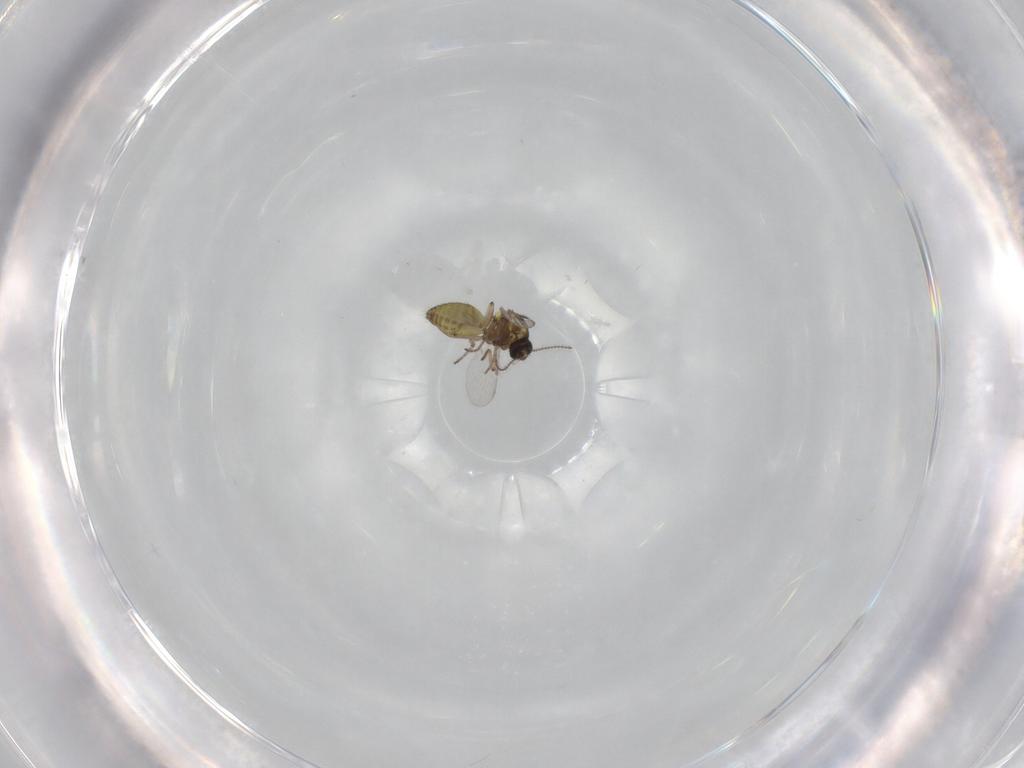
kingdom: Animalia
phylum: Arthropoda
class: Insecta
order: Diptera
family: Ceratopogonidae
